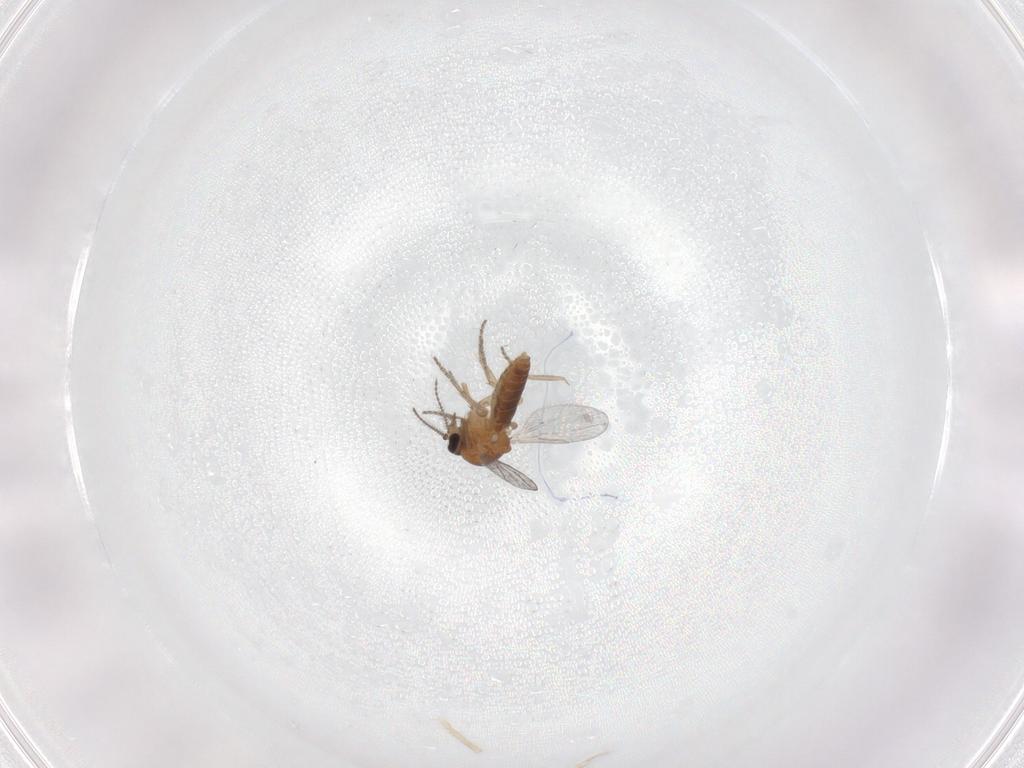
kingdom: Animalia
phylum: Arthropoda
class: Insecta
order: Diptera
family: Ceratopogonidae
